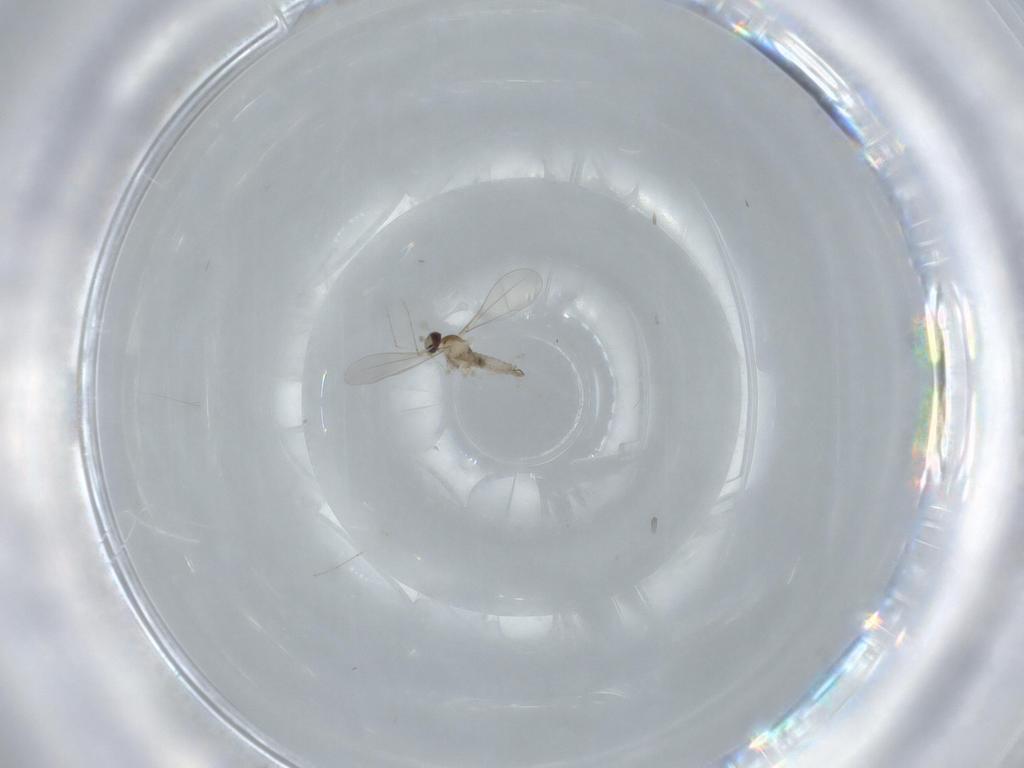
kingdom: Animalia
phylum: Arthropoda
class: Insecta
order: Diptera
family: Cecidomyiidae
